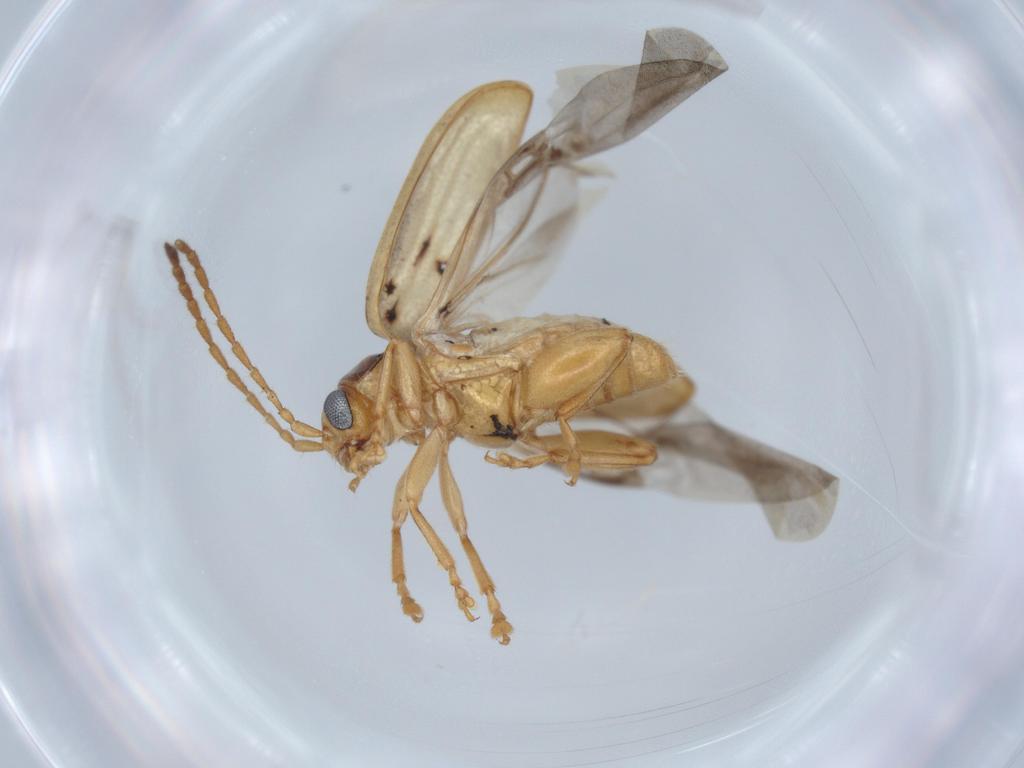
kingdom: Animalia
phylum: Arthropoda
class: Insecta
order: Coleoptera
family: Chrysomelidae
